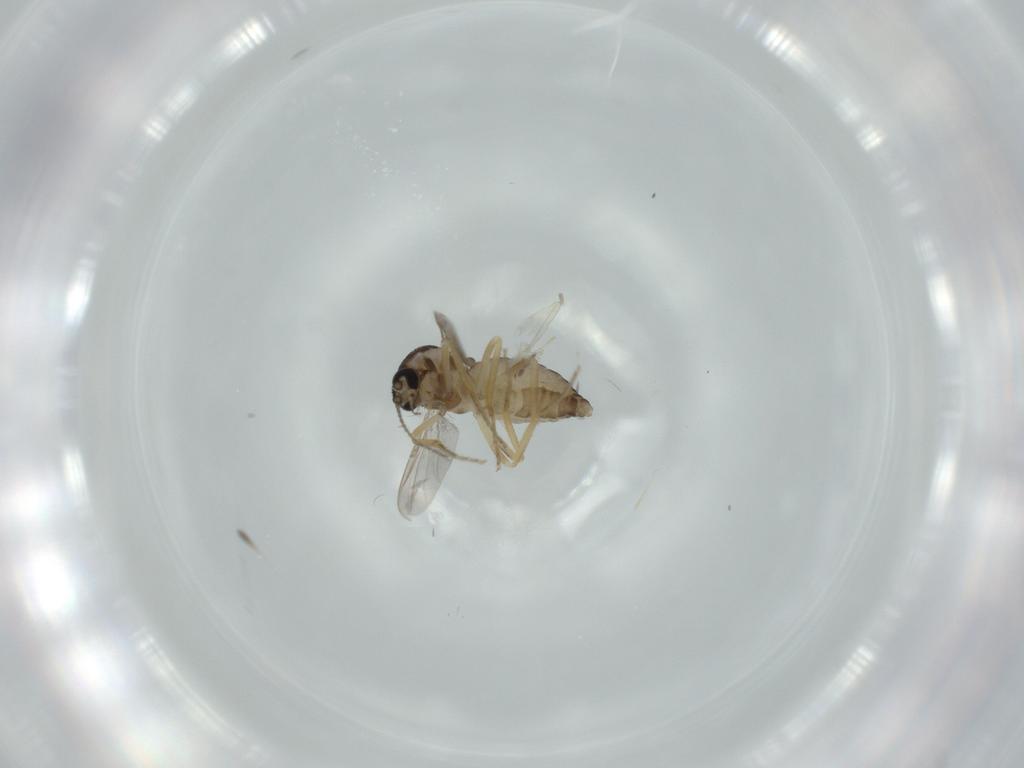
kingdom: Animalia
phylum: Arthropoda
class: Insecta
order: Diptera
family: Ceratopogonidae
